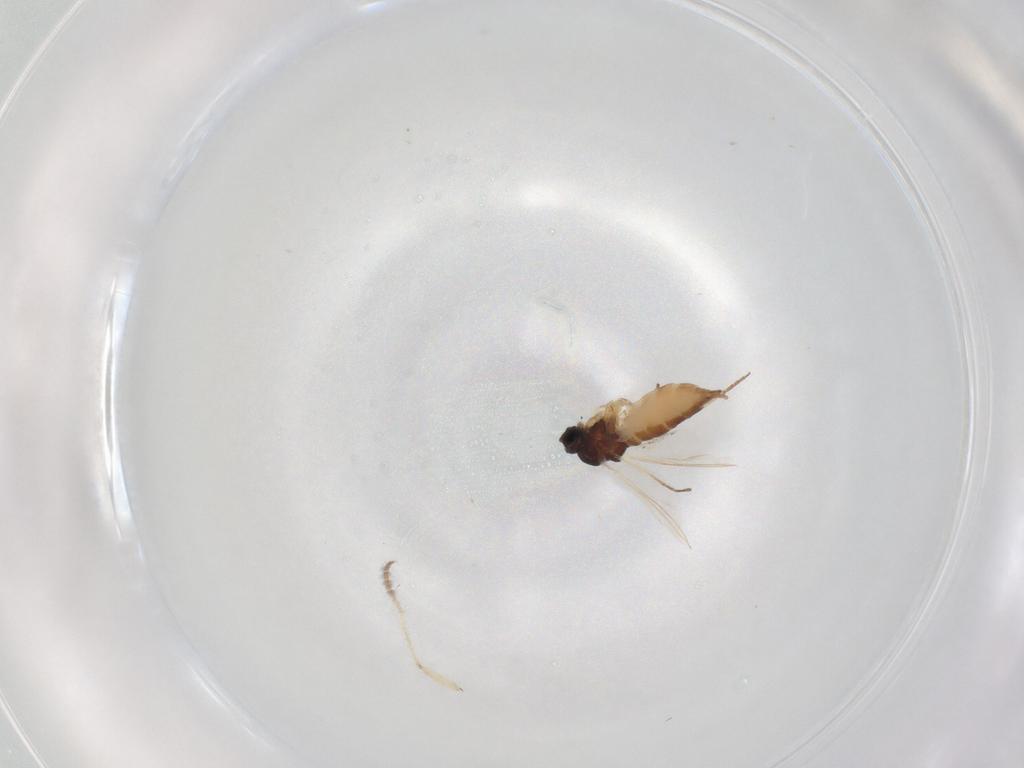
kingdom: Animalia
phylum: Arthropoda
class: Insecta
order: Diptera
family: Sciaridae
